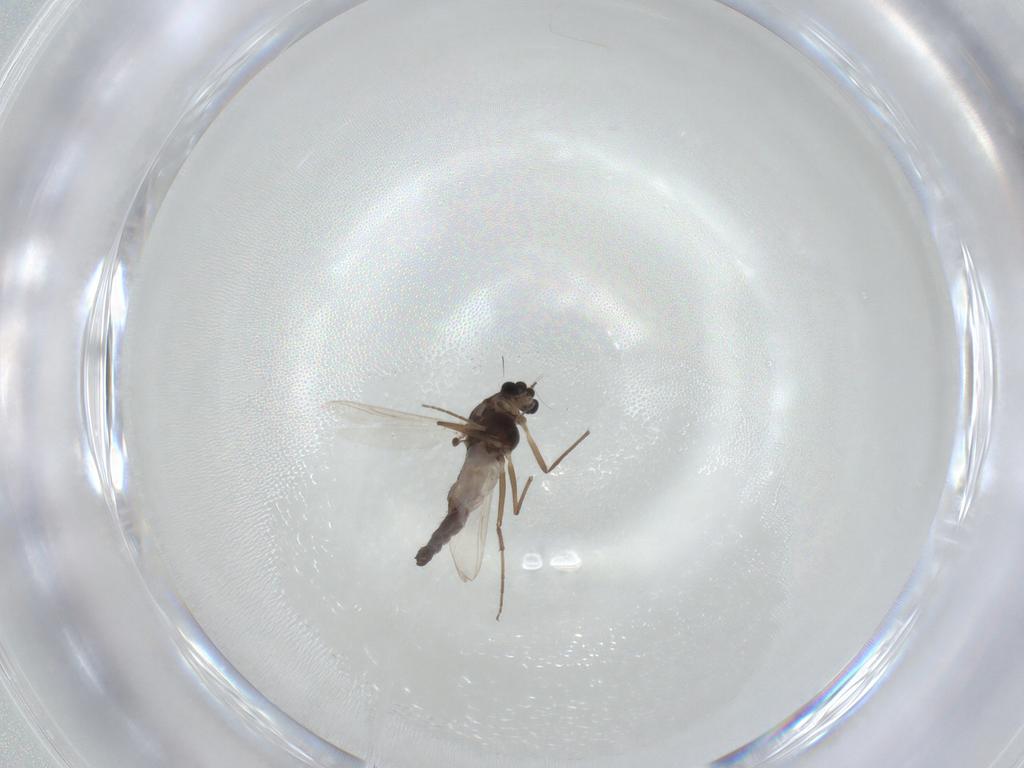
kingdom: Animalia
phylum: Arthropoda
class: Insecta
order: Diptera
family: Chironomidae
